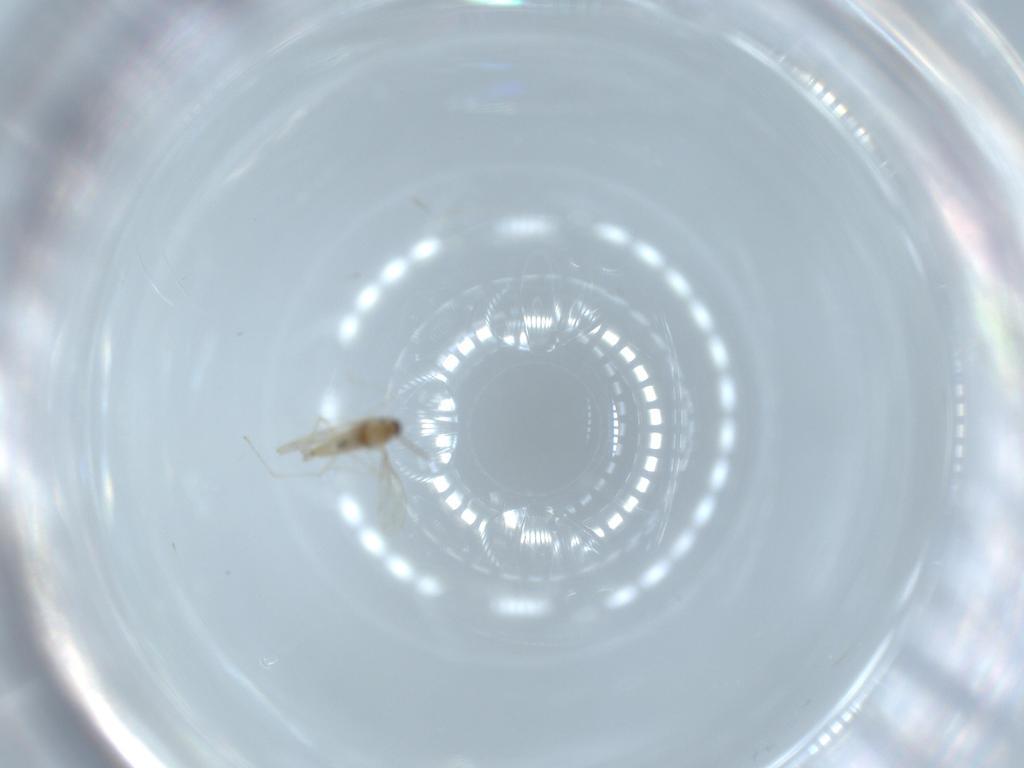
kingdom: Animalia
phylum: Arthropoda
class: Insecta
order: Diptera
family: Cecidomyiidae
